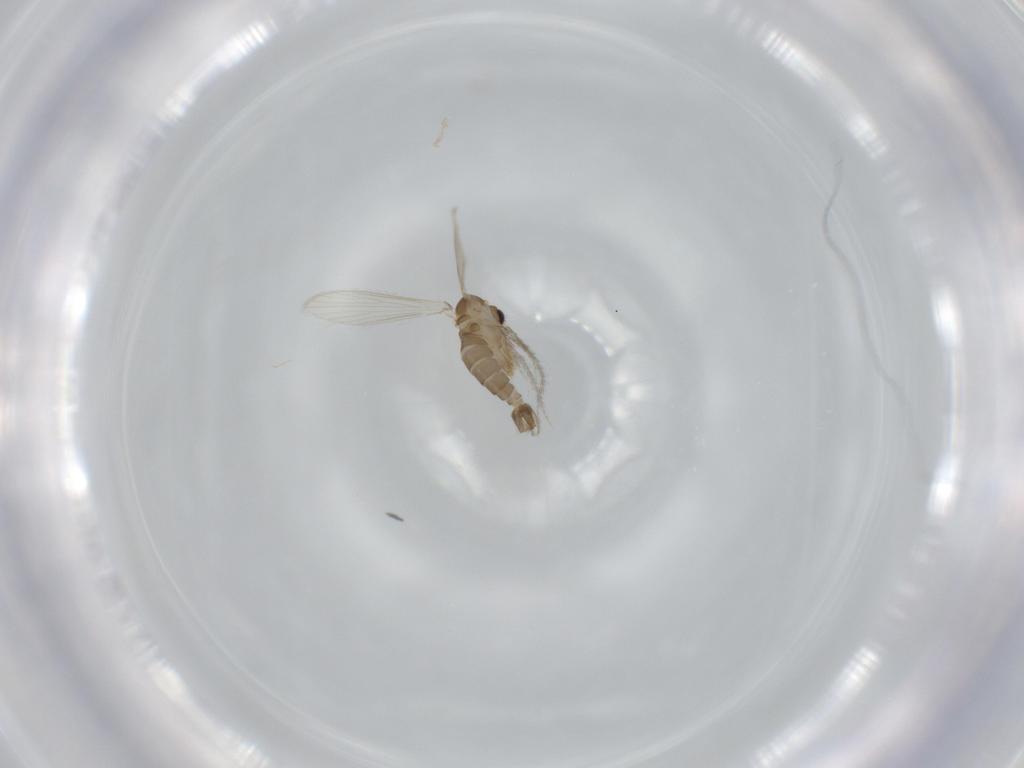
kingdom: Animalia
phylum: Arthropoda
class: Insecta
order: Diptera
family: Psychodidae
